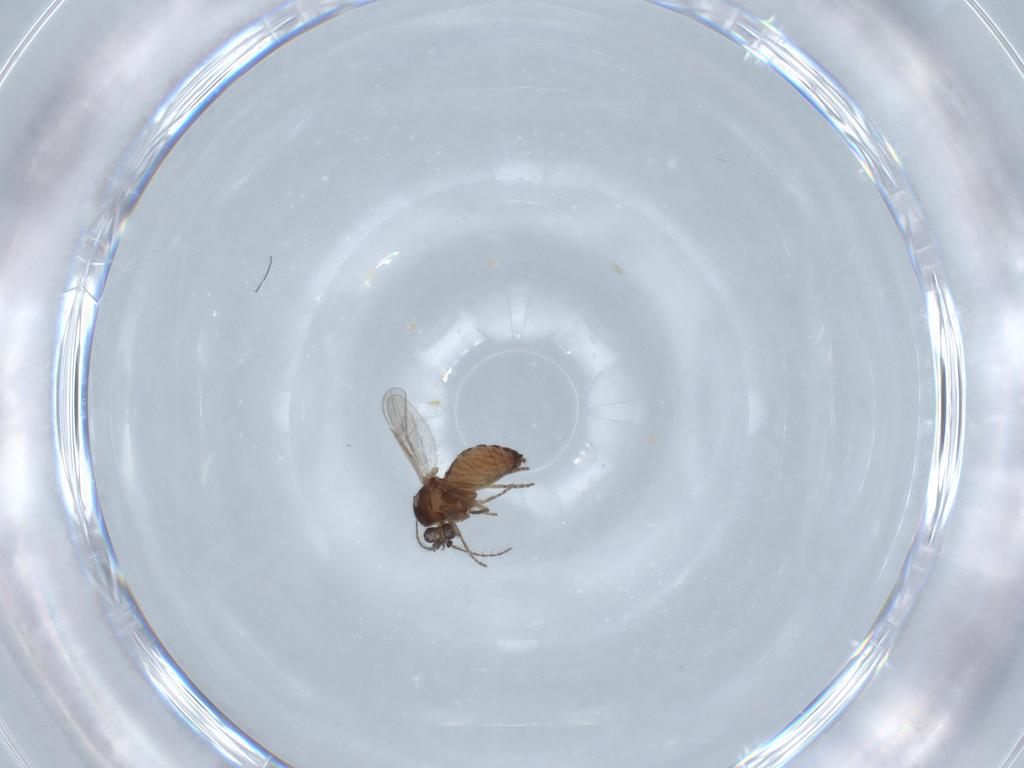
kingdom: Animalia
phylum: Arthropoda
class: Insecta
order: Diptera
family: Ceratopogonidae
